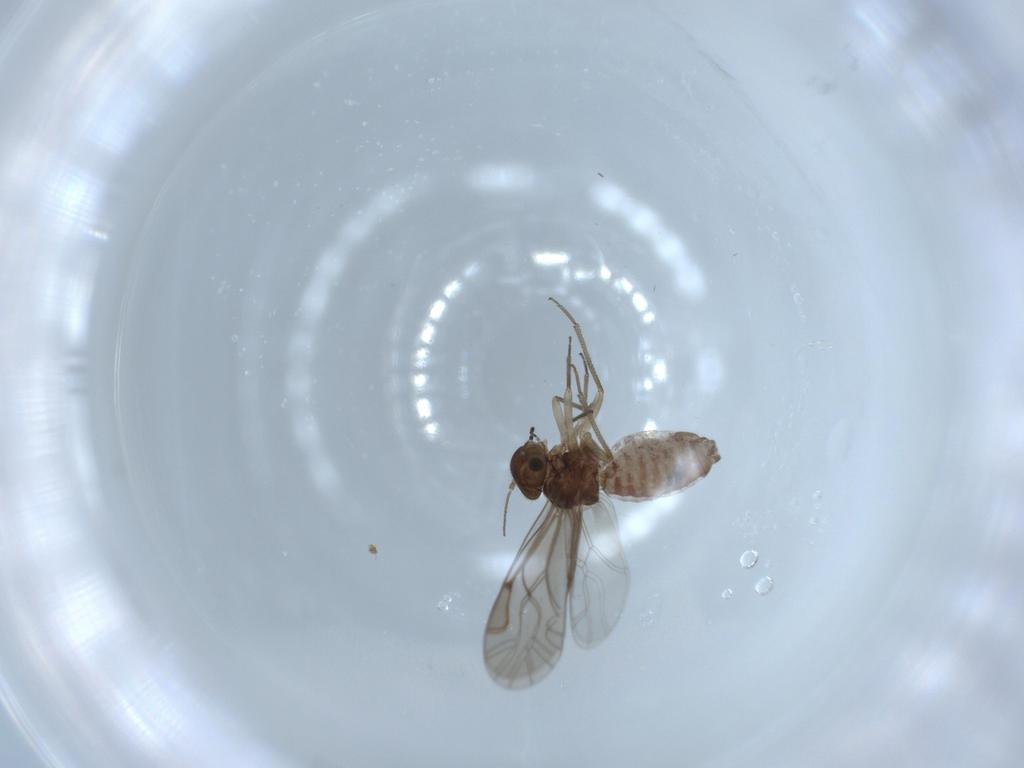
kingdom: Animalia
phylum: Arthropoda
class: Insecta
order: Psocodea
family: Lachesillidae
